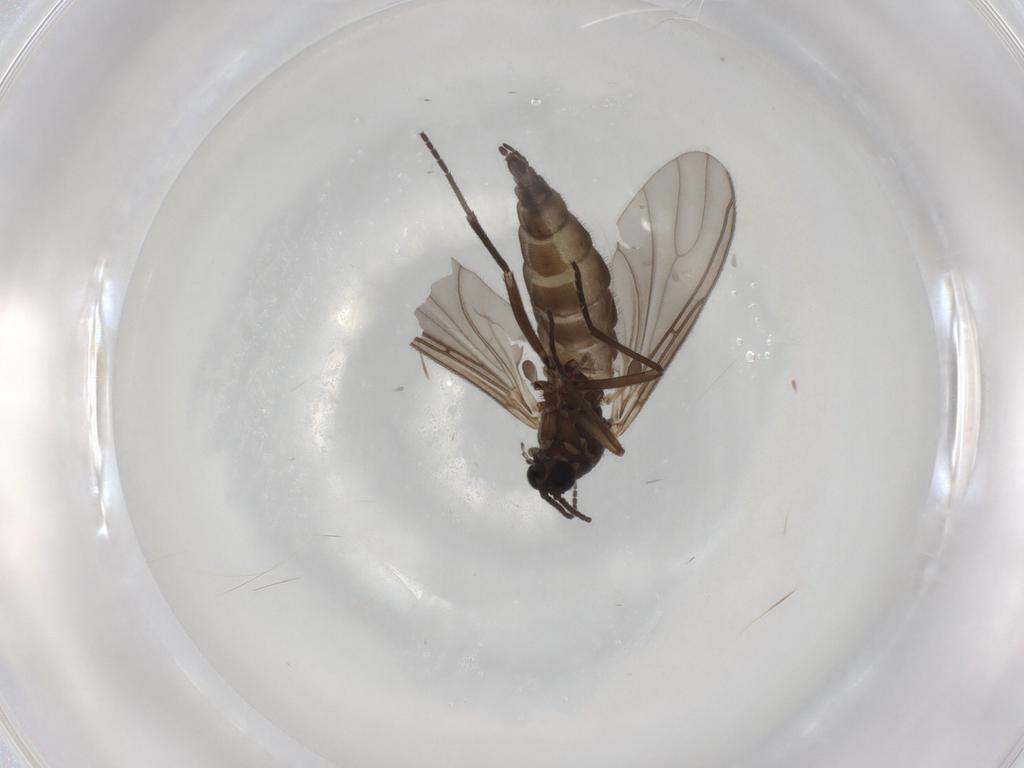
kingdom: Animalia
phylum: Arthropoda
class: Insecta
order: Diptera
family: Sciaridae
